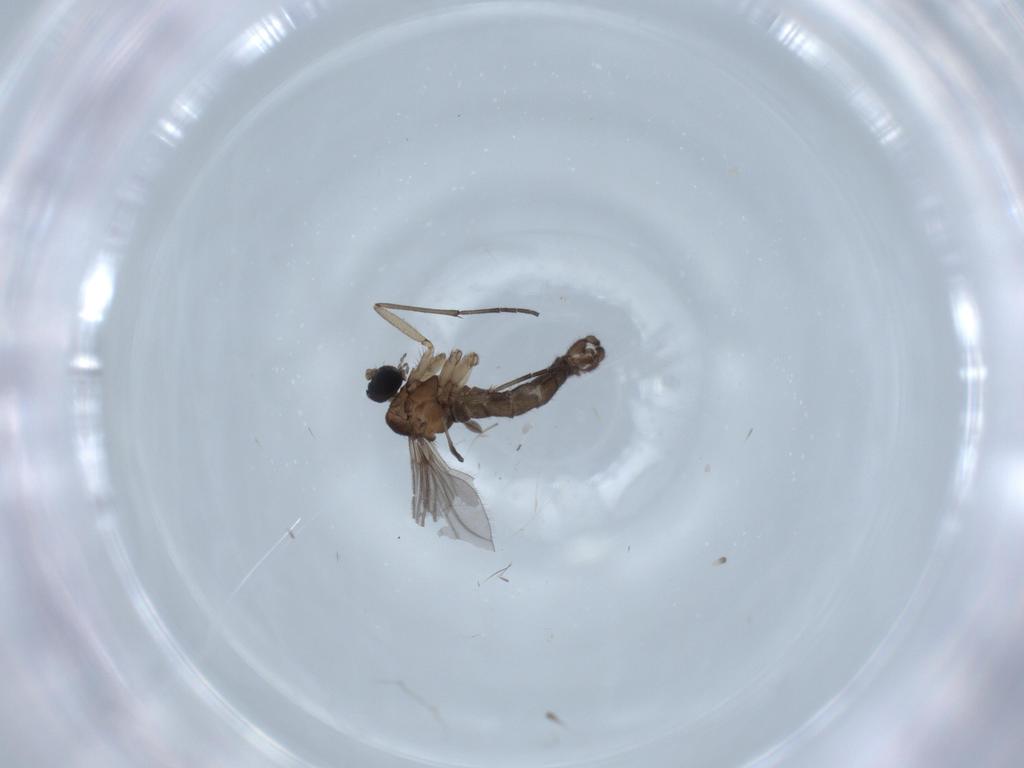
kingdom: Animalia
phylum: Arthropoda
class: Insecta
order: Diptera
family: Sciaridae
